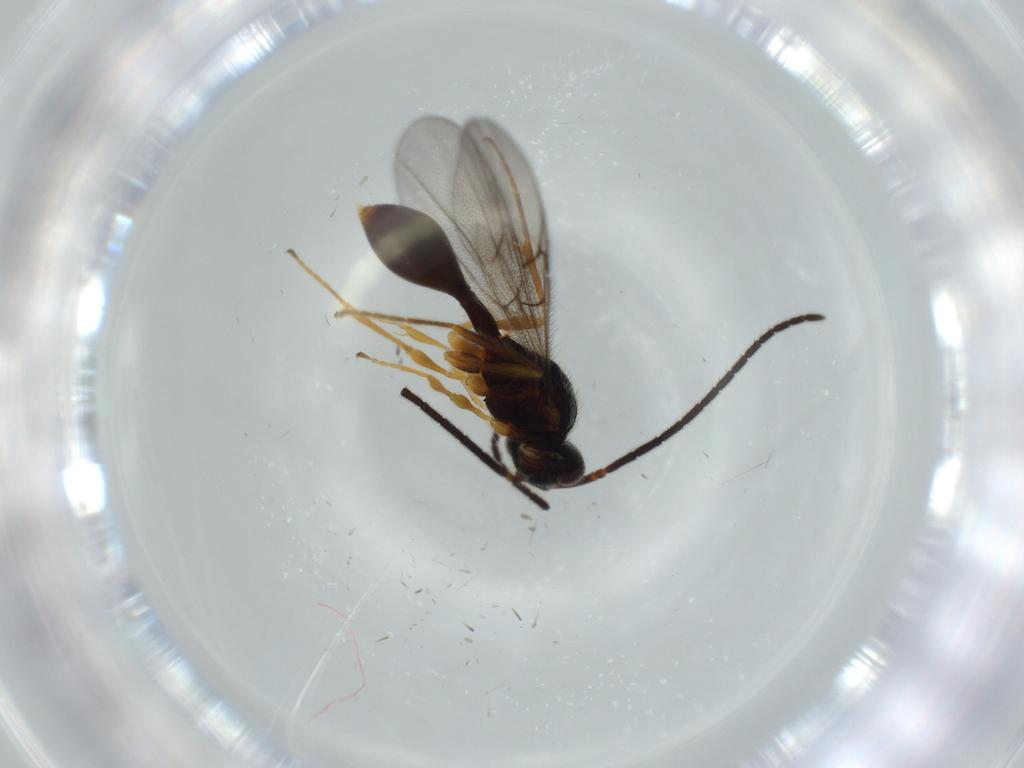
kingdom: Animalia
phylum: Arthropoda
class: Insecta
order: Hymenoptera
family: Diapriidae
